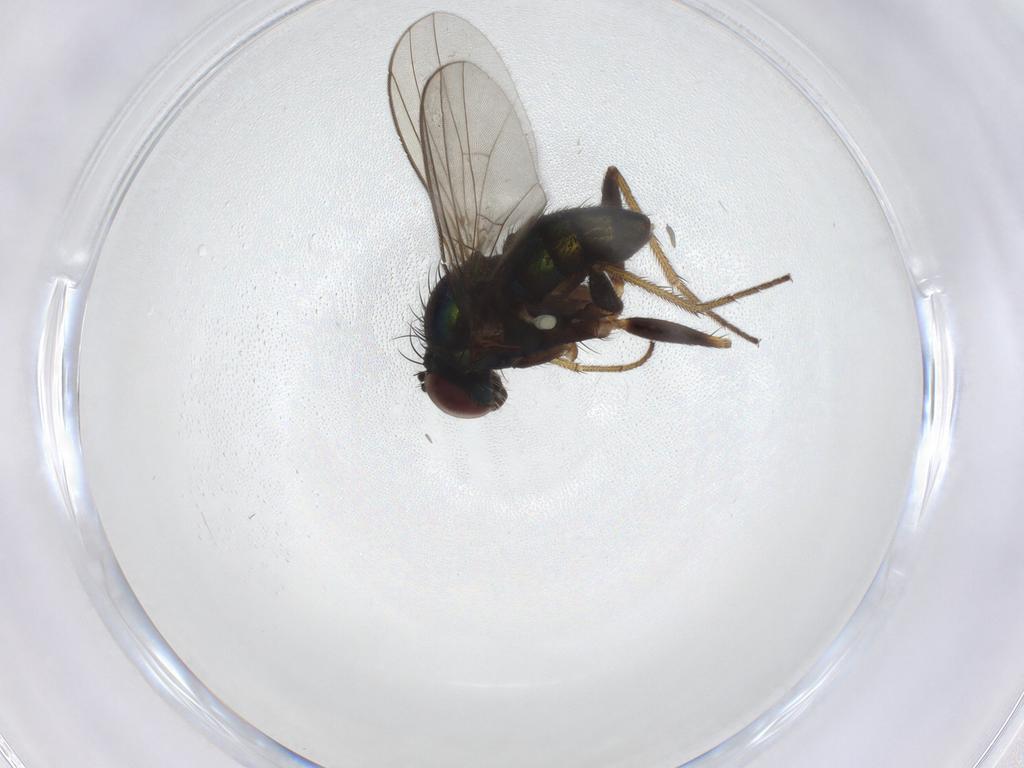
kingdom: Animalia
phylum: Arthropoda
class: Insecta
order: Diptera
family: Dolichopodidae
